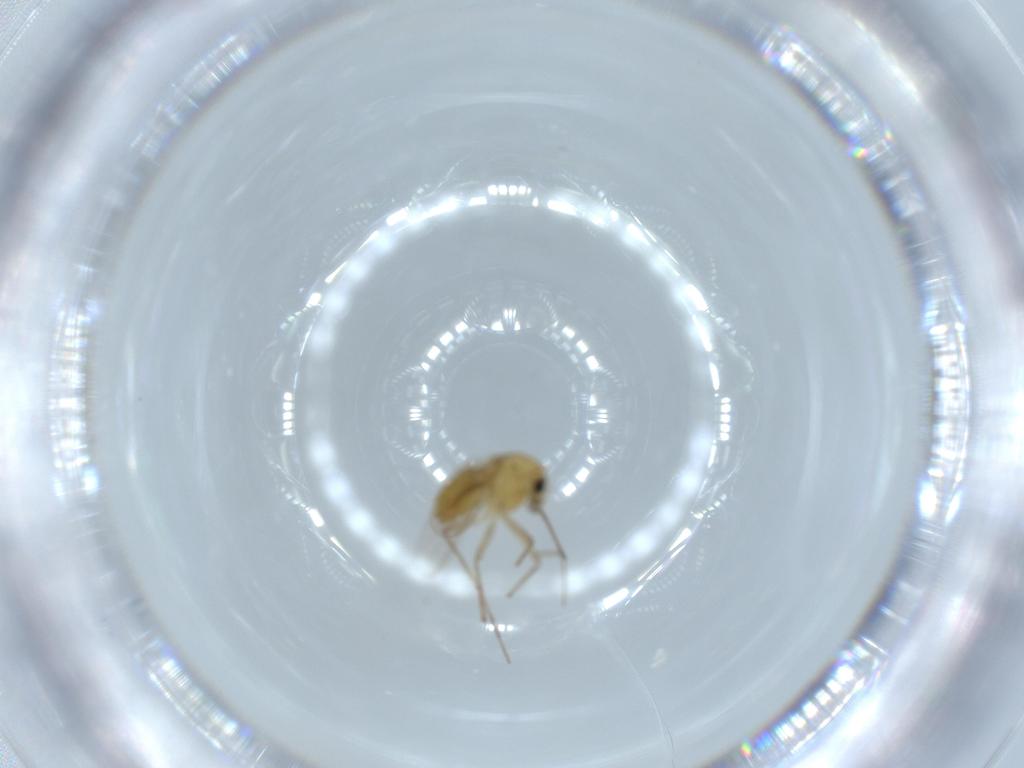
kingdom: Animalia
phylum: Arthropoda
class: Insecta
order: Diptera
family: Chironomidae
